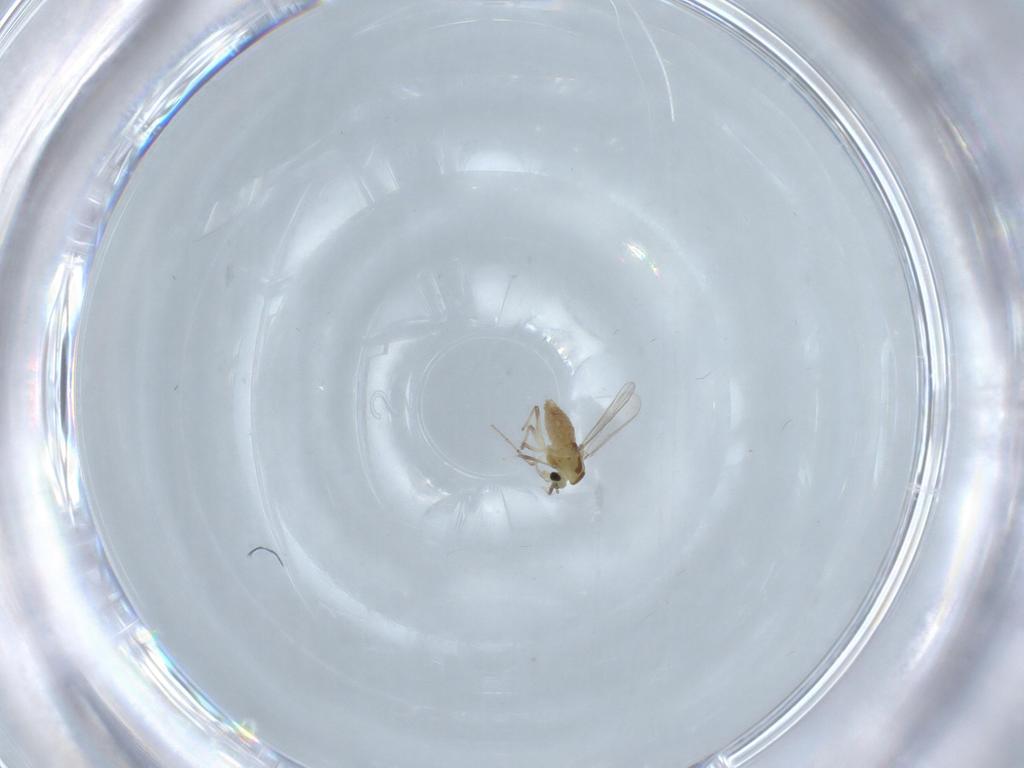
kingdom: Animalia
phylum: Arthropoda
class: Insecta
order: Diptera
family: Chironomidae
